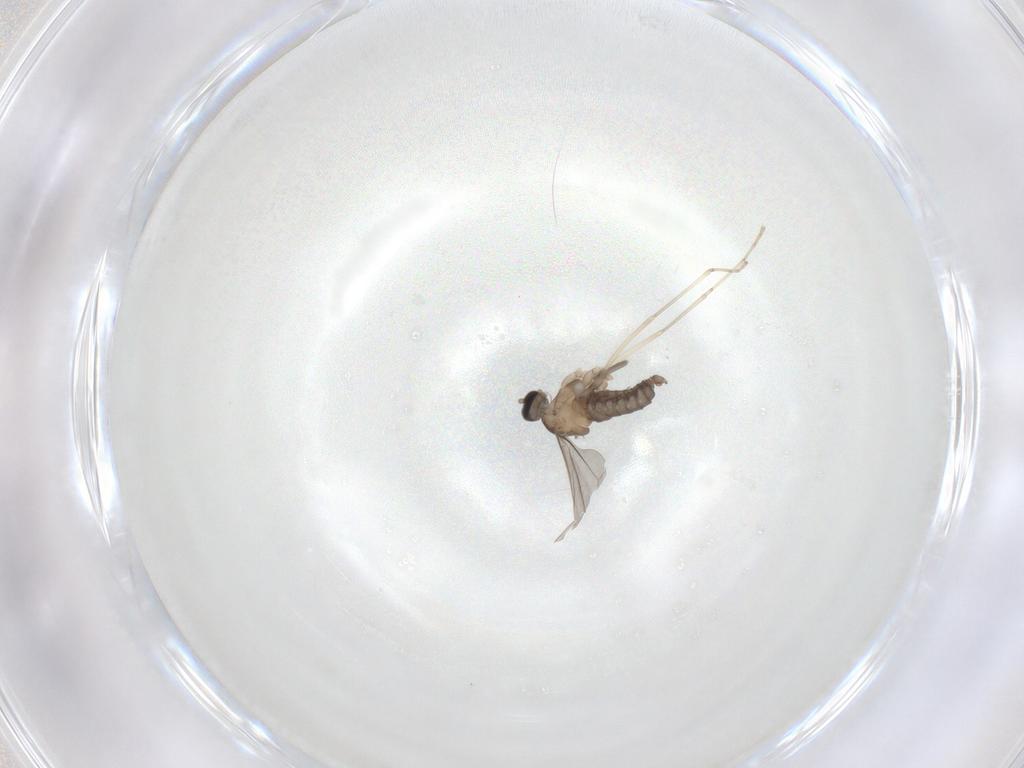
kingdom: Animalia
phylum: Arthropoda
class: Insecta
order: Diptera
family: Cecidomyiidae
